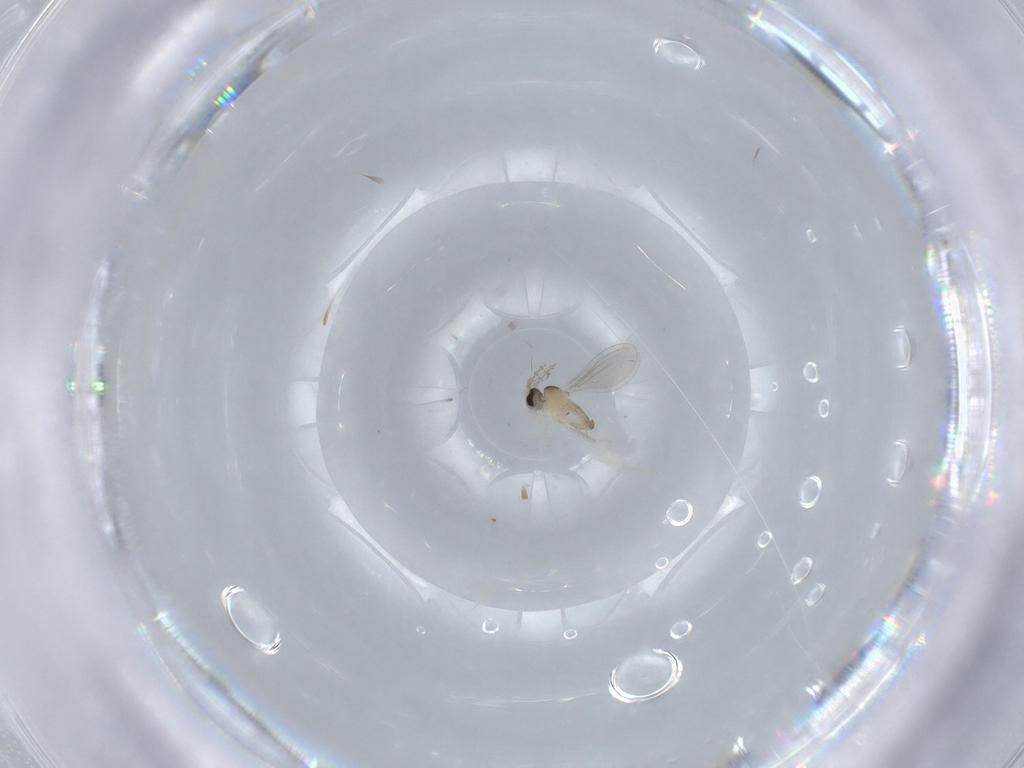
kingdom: Animalia
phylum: Arthropoda
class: Insecta
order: Diptera
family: Cecidomyiidae
